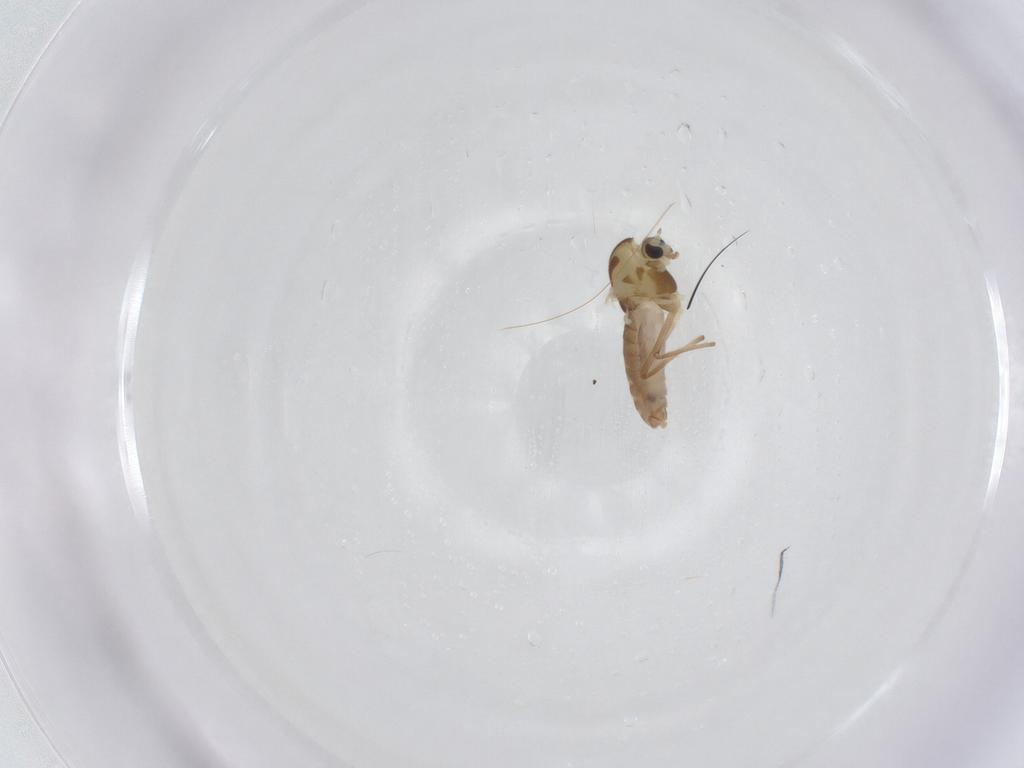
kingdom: Animalia
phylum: Arthropoda
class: Insecta
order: Diptera
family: Chironomidae
